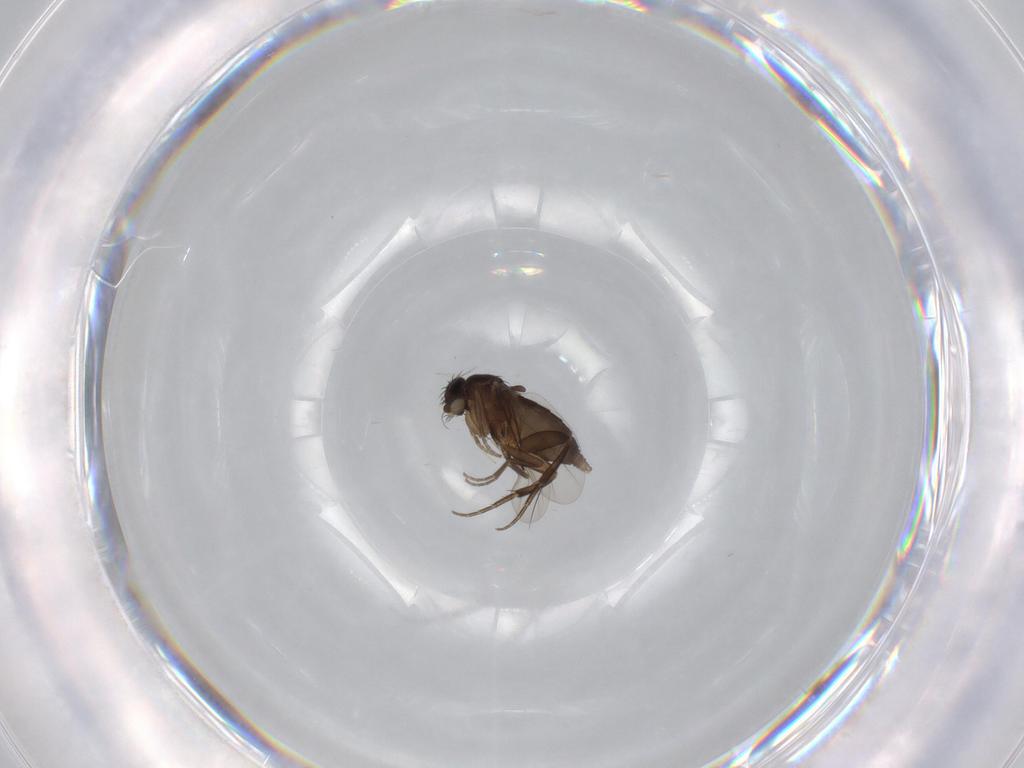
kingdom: Animalia
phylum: Arthropoda
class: Insecta
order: Diptera
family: Phoridae
